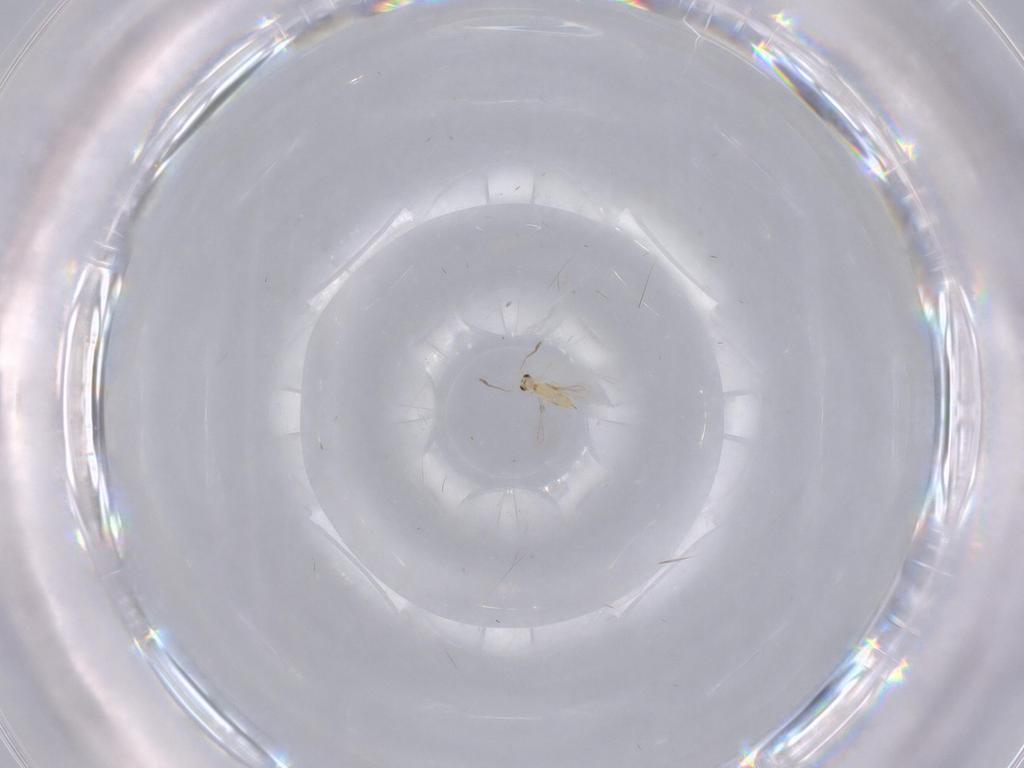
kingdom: Animalia
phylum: Arthropoda
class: Insecta
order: Hymenoptera
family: Mymaridae
